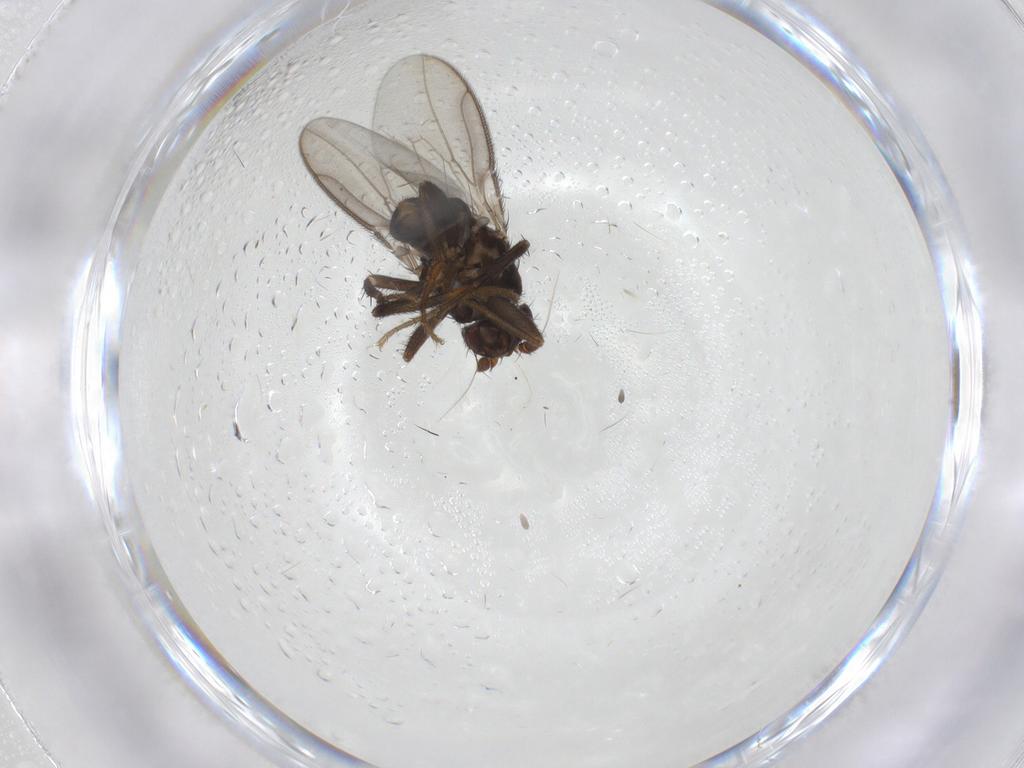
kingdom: Animalia
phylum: Arthropoda
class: Insecta
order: Diptera
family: Sphaeroceridae
